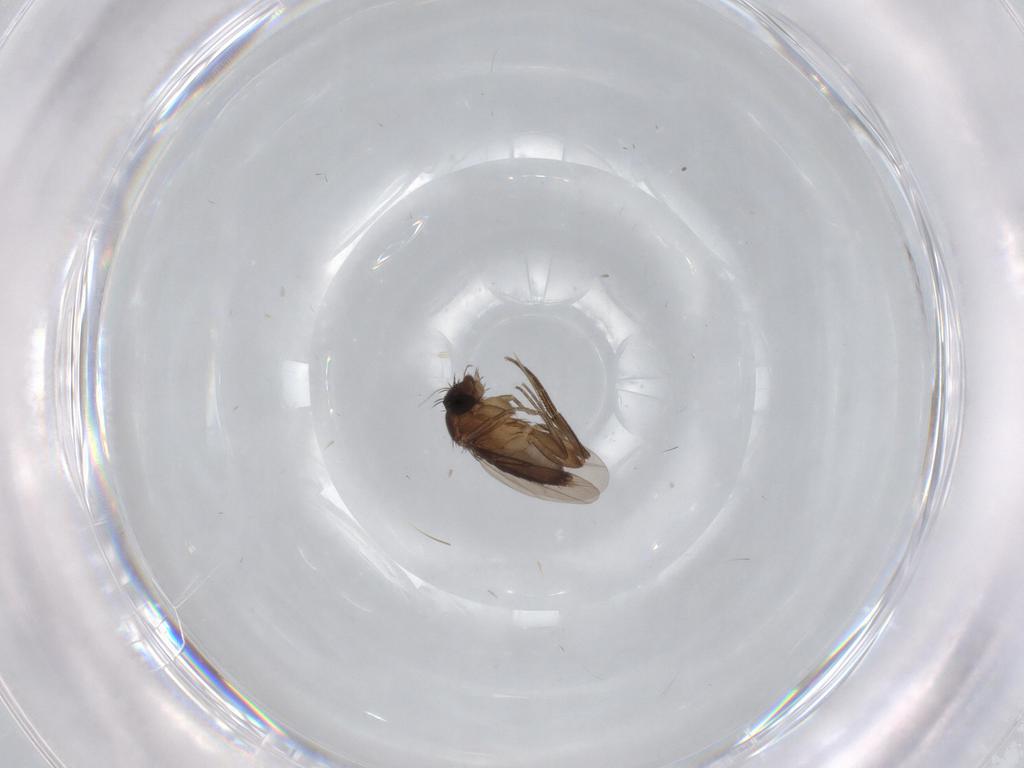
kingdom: Animalia
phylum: Arthropoda
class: Insecta
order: Diptera
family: Phoridae
